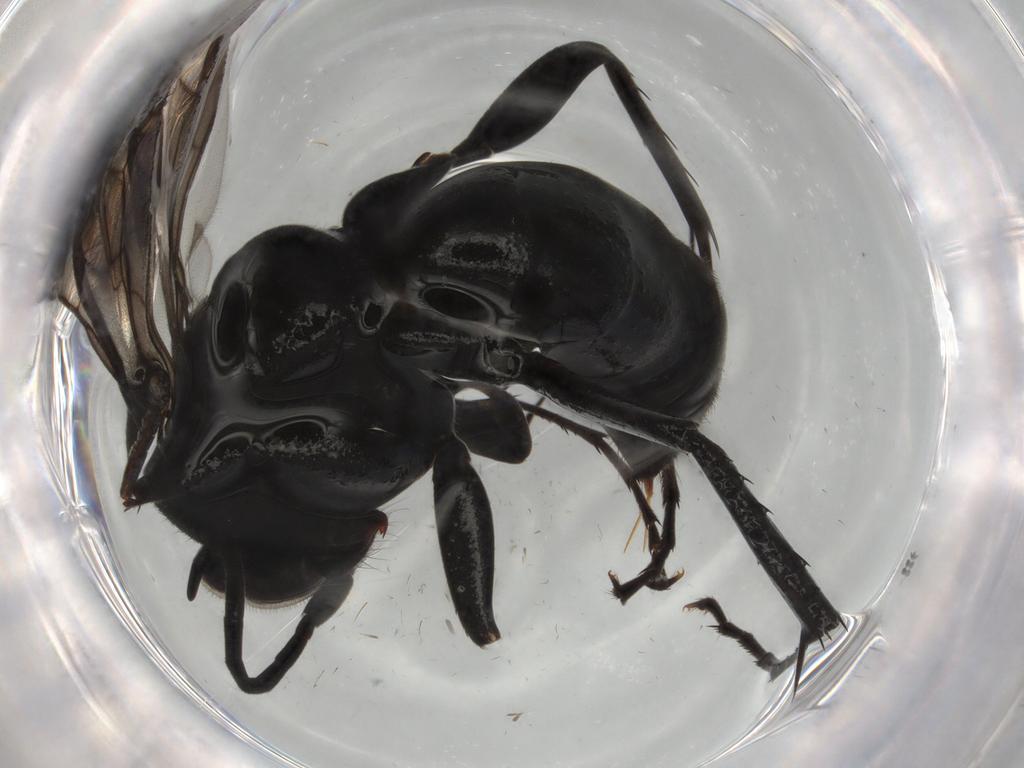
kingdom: Animalia
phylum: Arthropoda
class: Insecta
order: Hymenoptera
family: Pompilidae
